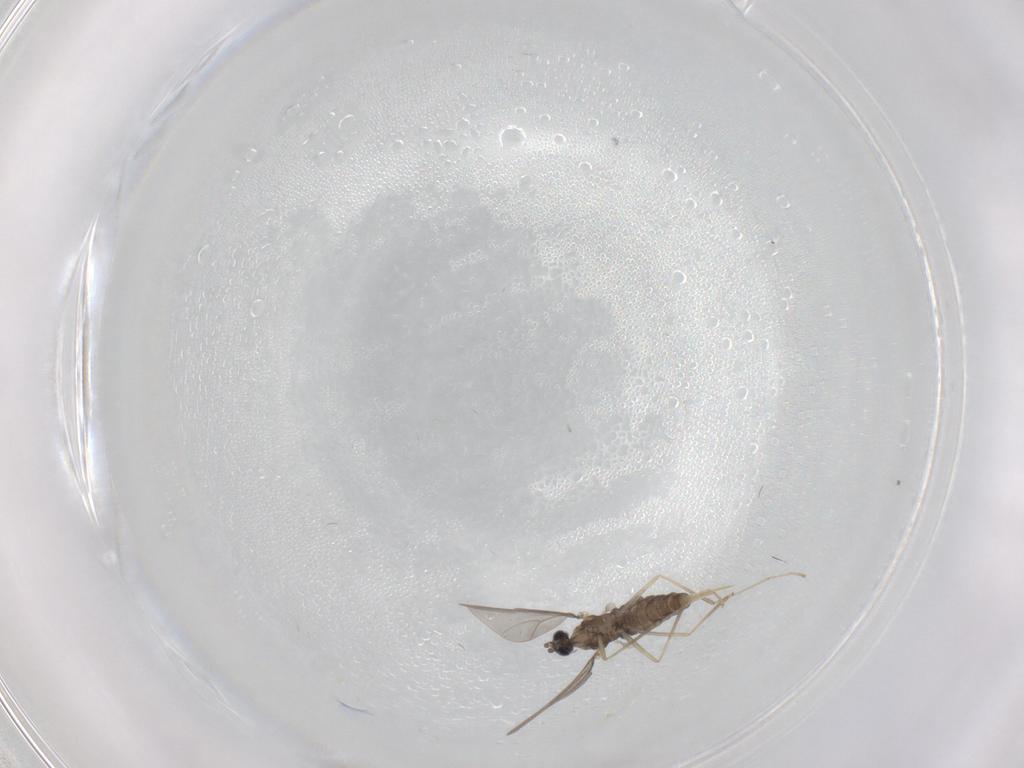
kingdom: Animalia
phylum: Arthropoda
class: Insecta
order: Diptera
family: Cecidomyiidae
